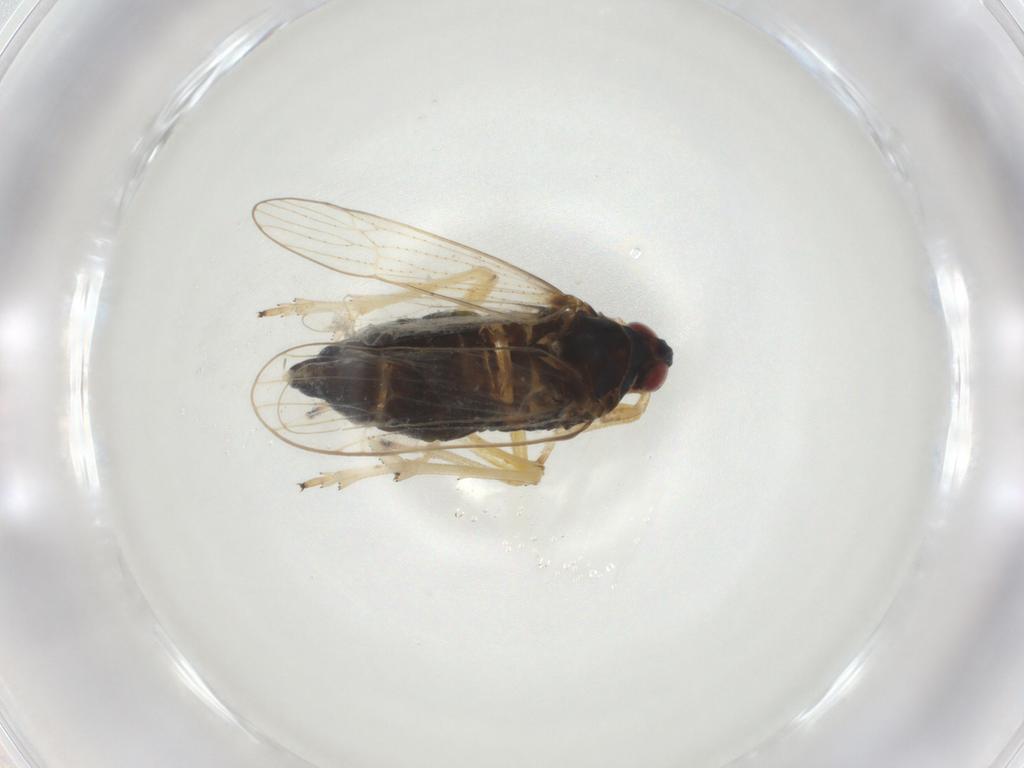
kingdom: Animalia
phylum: Arthropoda
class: Insecta
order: Hemiptera
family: Delphacidae
